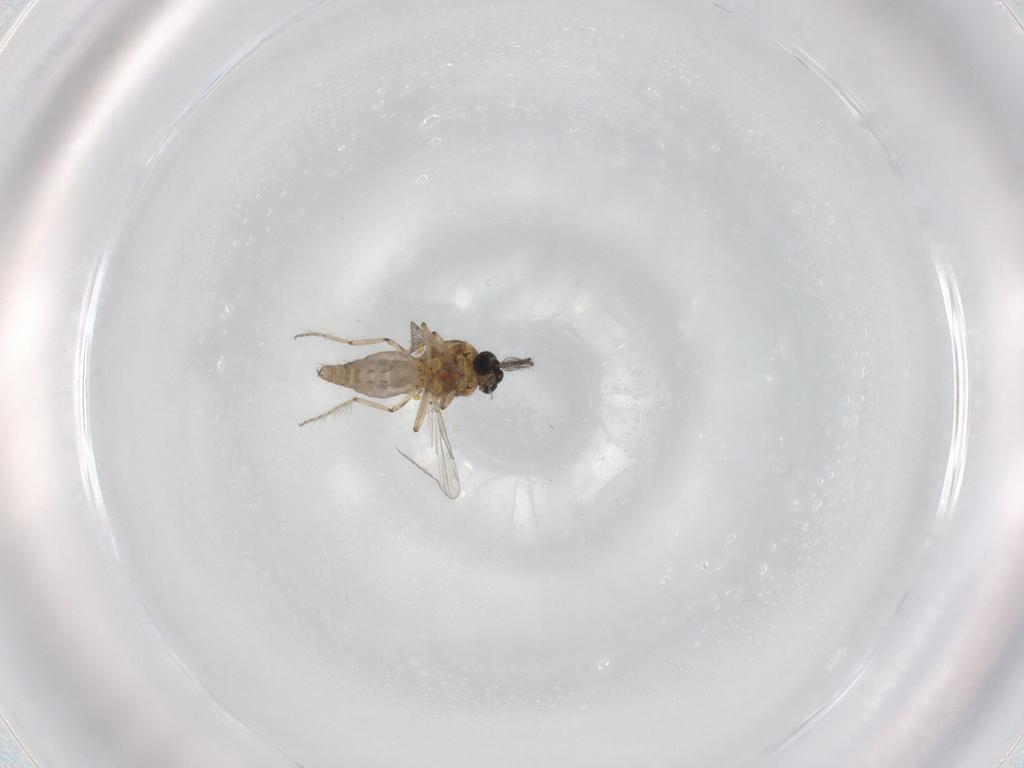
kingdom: Animalia
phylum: Arthropoda
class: Insecta
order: Diptera
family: Ceratopogonidae
